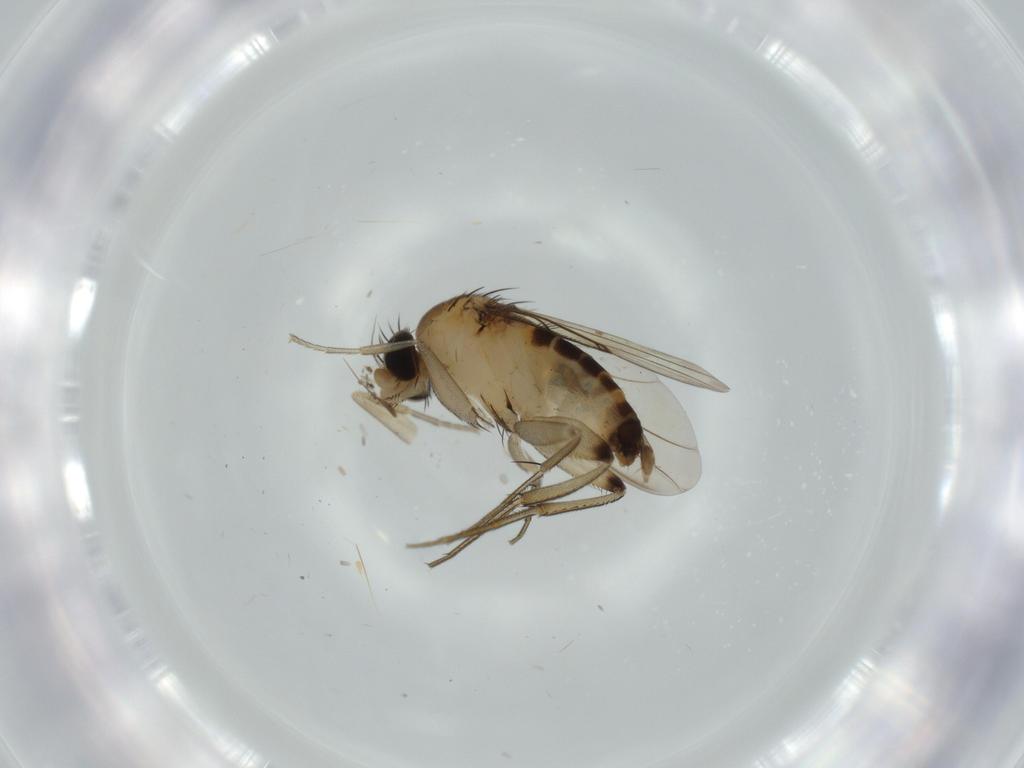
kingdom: Animalia
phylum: Arthropoda
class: Insecta
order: Diptera
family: Phoridae
